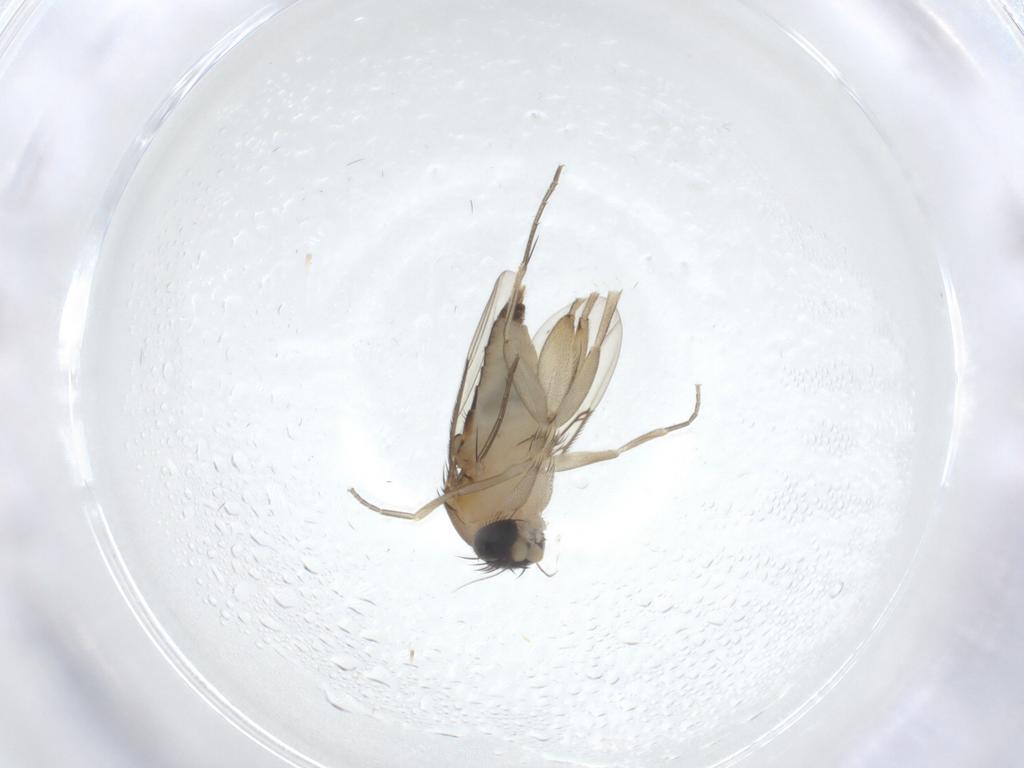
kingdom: Animalia
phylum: Arthropoda
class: Insecta
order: Diptera
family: Phoridae
